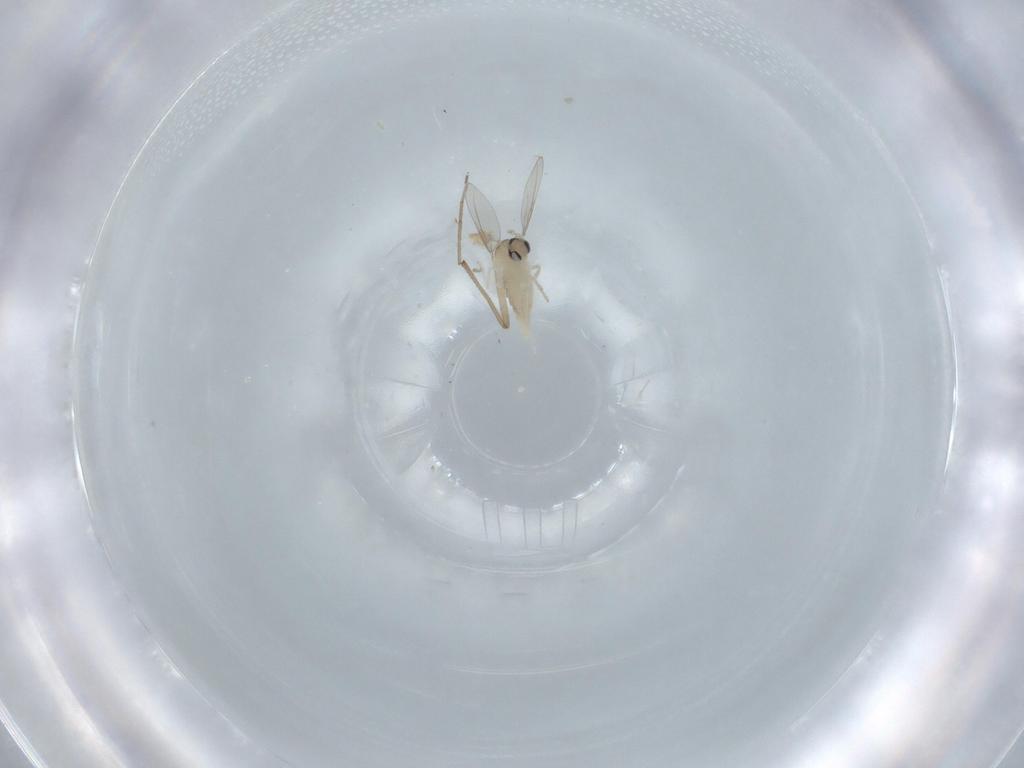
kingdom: Animalia
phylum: Arthropoda
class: Insecta
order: Diptera
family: Cecidomyiidae
